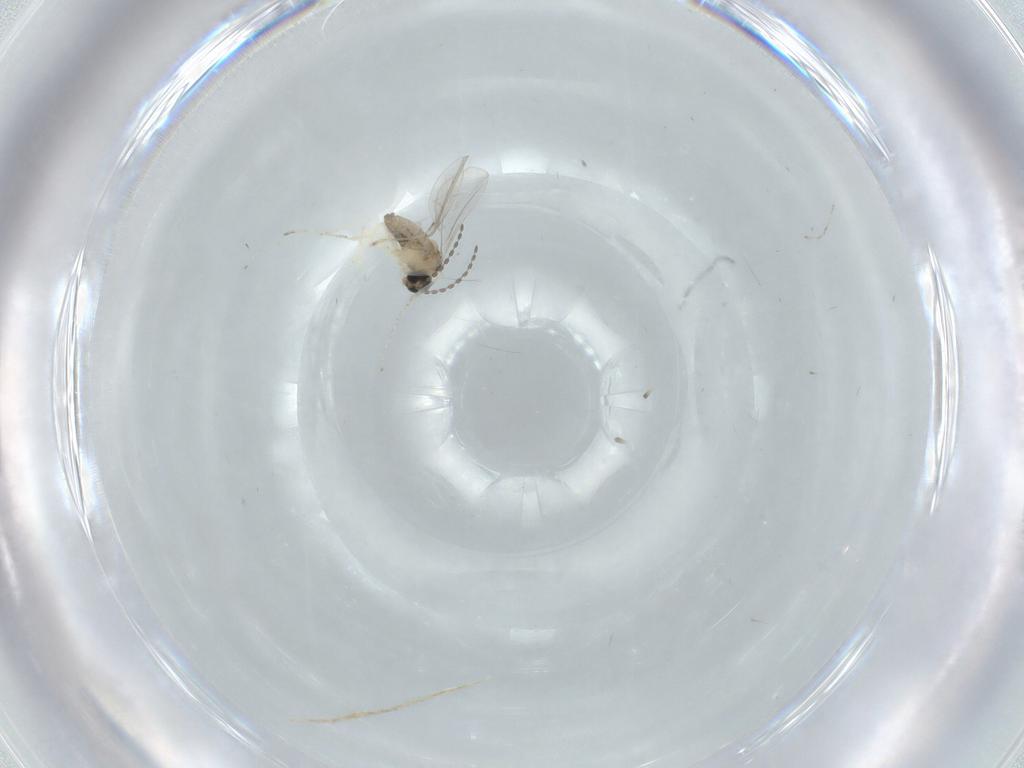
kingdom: Animalia
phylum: Arthropoda
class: Insecta
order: Diptera
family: Cecidomyiidae
